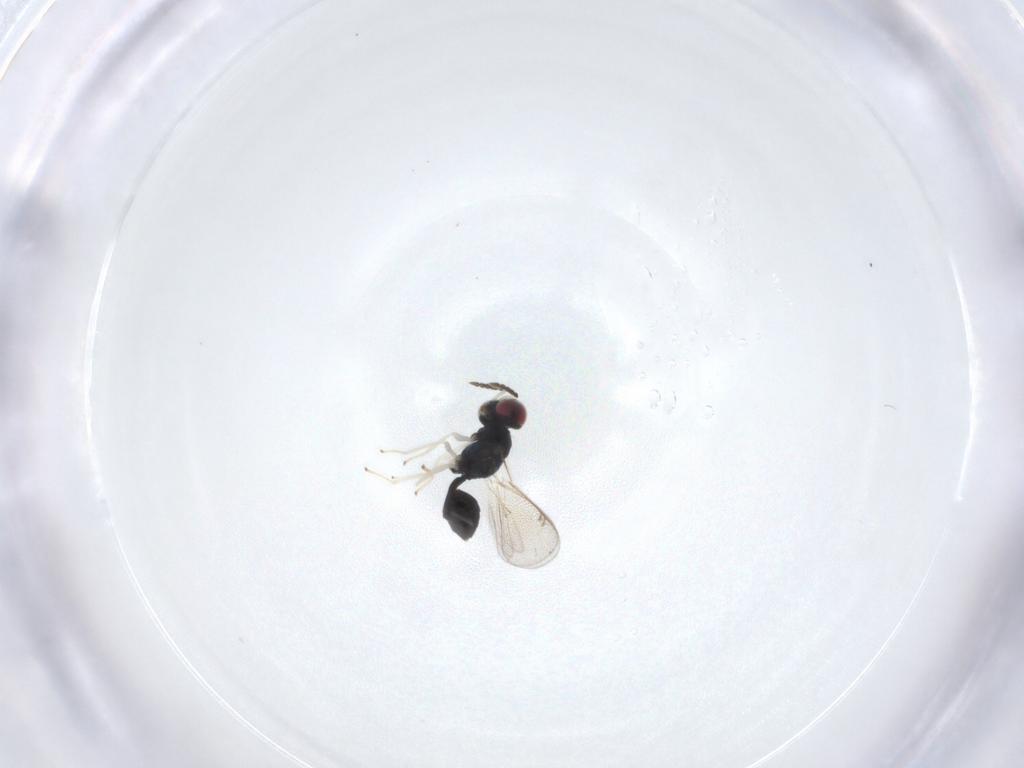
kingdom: Animalia
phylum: Arthropoda
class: Insecta
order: Hymenoptera
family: Eulophidae
